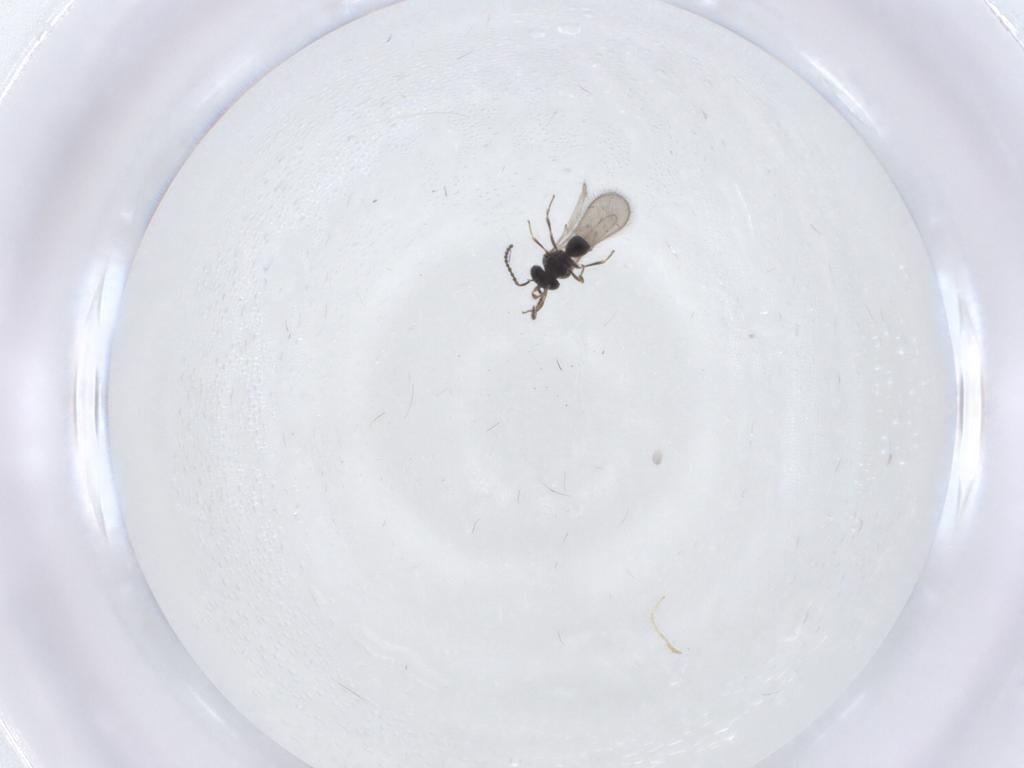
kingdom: Animalia
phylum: Arthropoda
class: Insecta
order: Hymenoptera
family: Scelionidae
